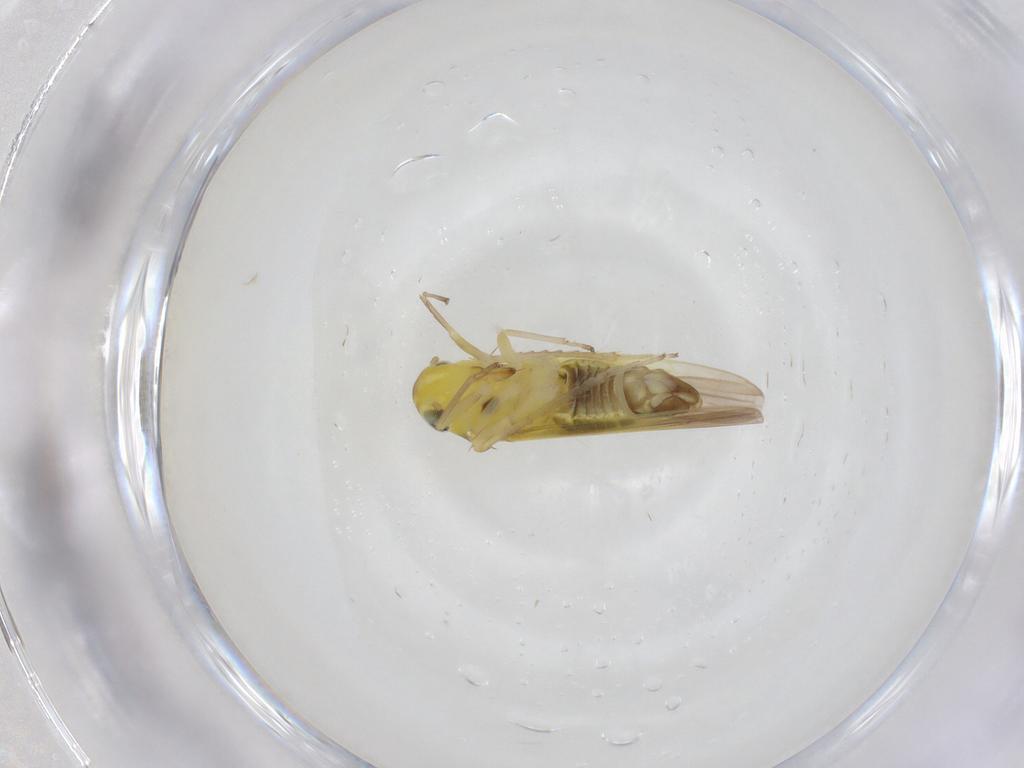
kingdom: Animalia
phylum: Arthropoda
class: Insecta
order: Hemiptera
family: Cicadellidae
